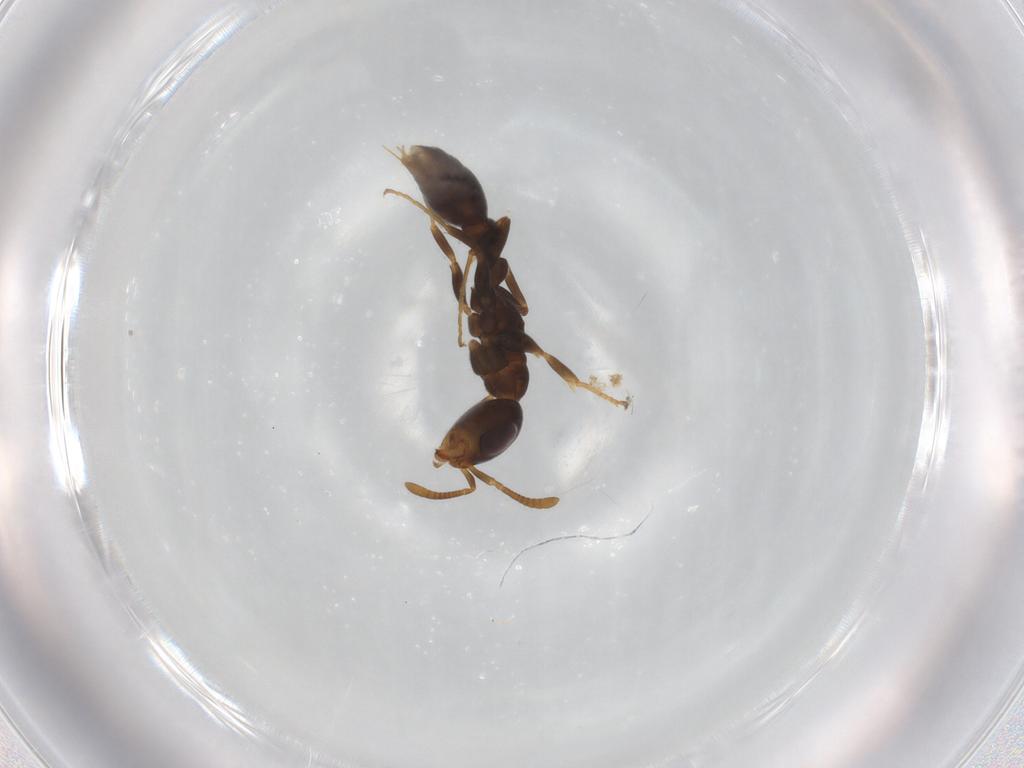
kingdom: Animalia
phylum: Arthropoda
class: Insecta
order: Hymenoptera
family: Formicidae
